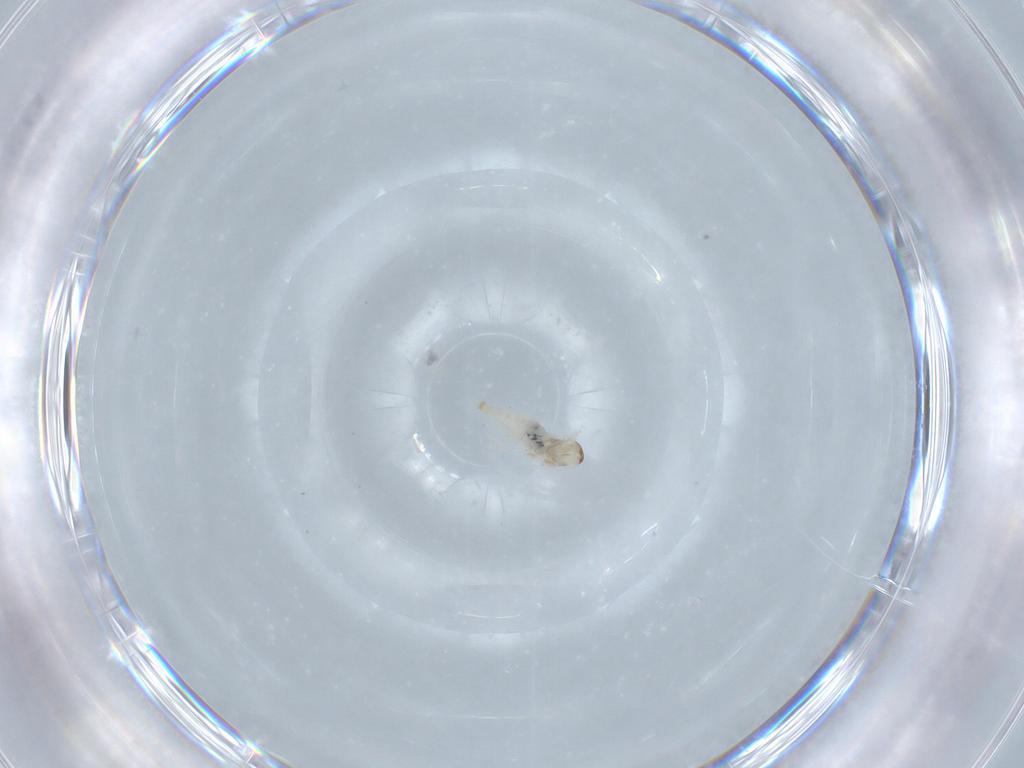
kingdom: Animalia
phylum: Arthropoda
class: Insecta
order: Diptera
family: Cecidomyiidae
